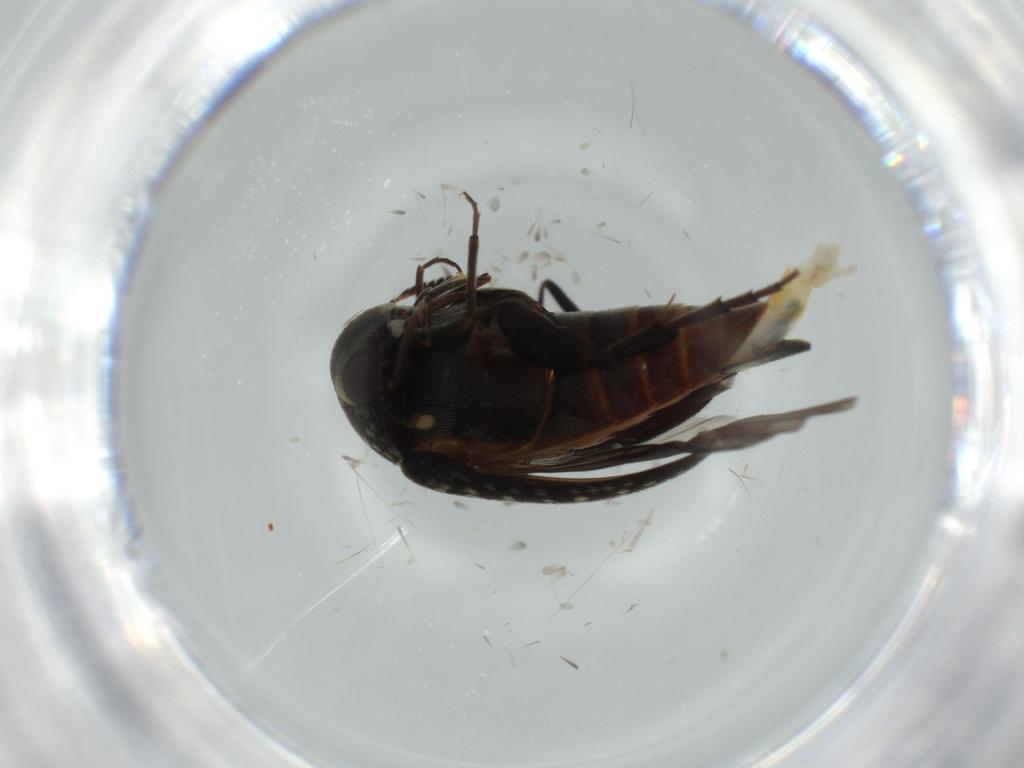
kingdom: Animalia
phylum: Arthropoda
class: Insecta
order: Coleoptera
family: Mordellidae
